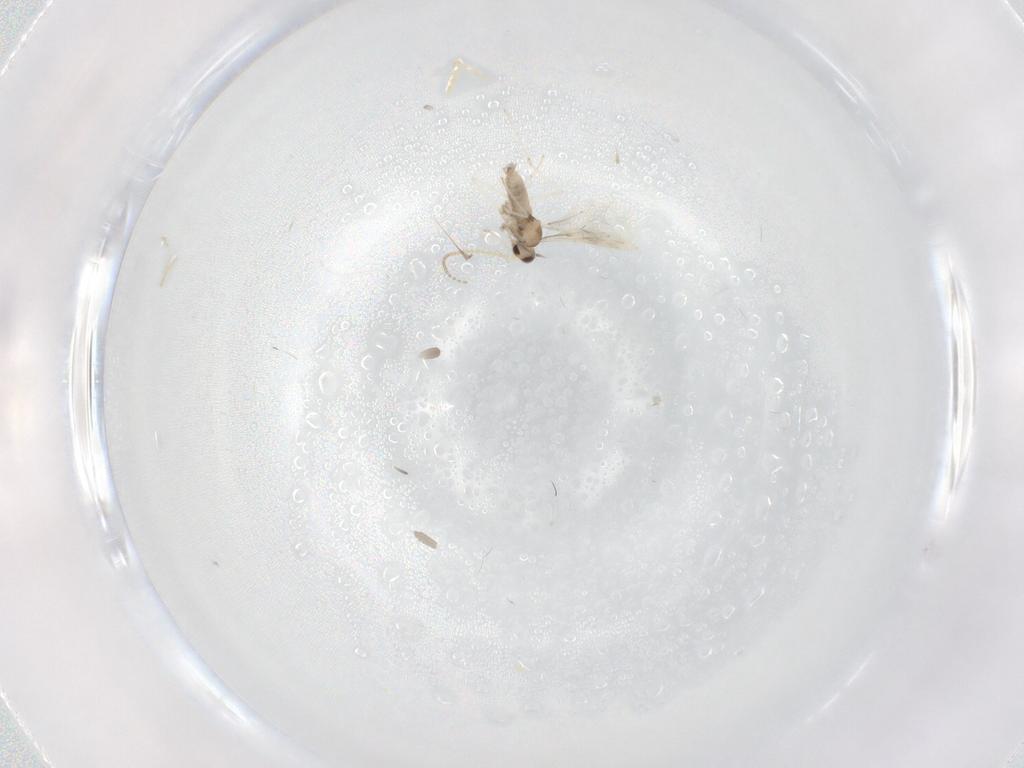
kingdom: Animalia
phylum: Arthropoda
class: Insecta
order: Diptera
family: Cecidomyiidae
